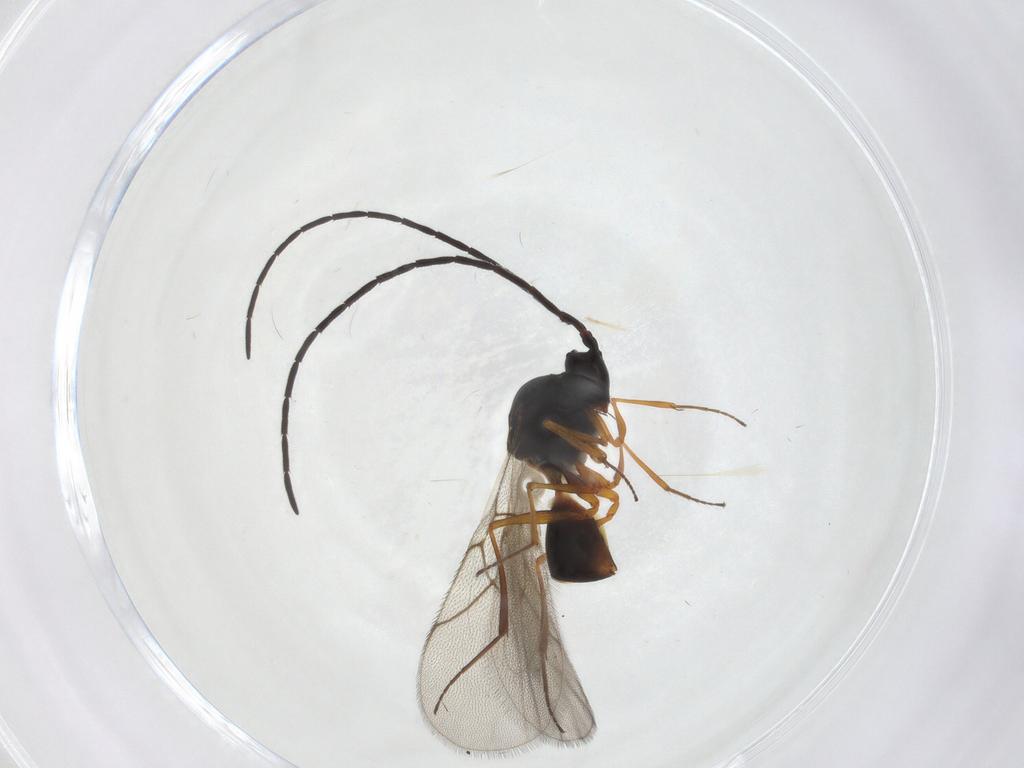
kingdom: Animalia
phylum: Arthropoda
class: Insecta
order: Hymenoptera
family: Figitidae
